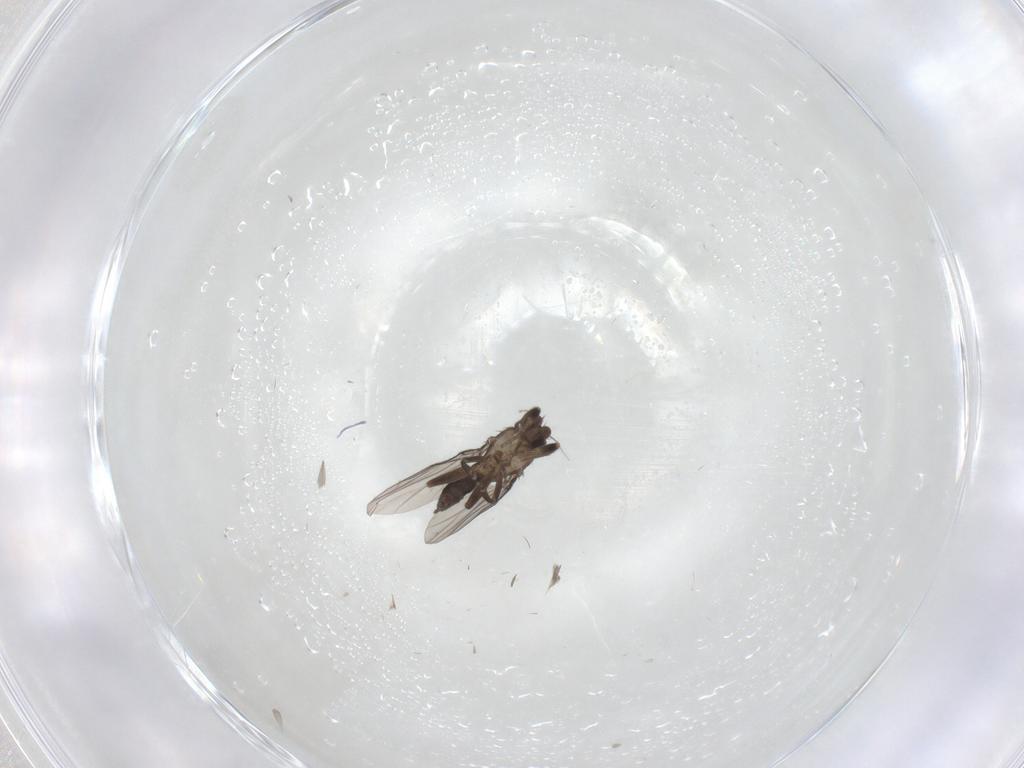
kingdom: Animalia
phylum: Arthropoda
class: Insecta
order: Diptera
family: Phoridae
